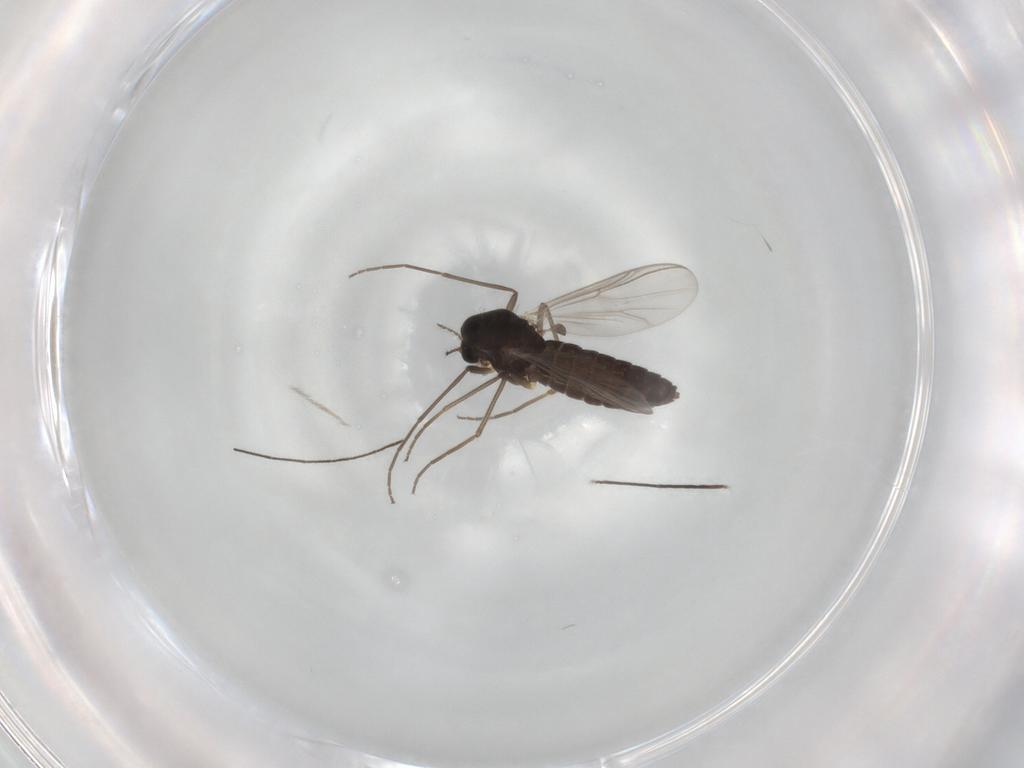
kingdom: Animalia
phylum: Arthropoda
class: Insecta
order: Diptera
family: Chironomidae
